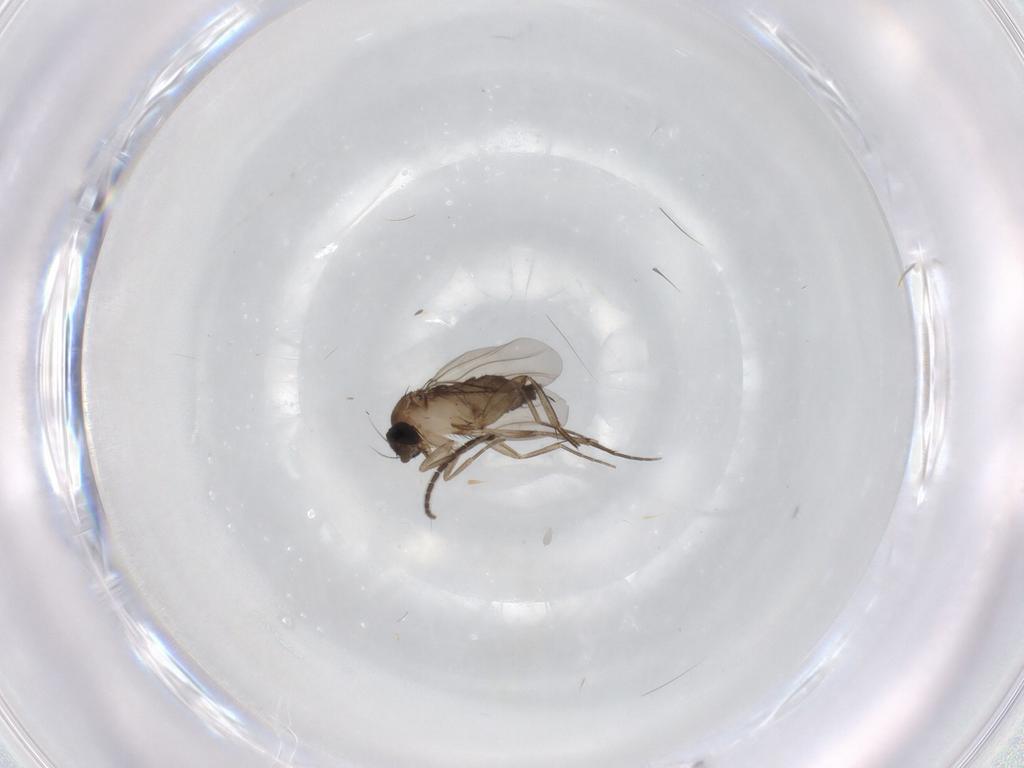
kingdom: Animalia
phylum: Arthropoda
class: Insecta
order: Diptera
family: Phoridae
